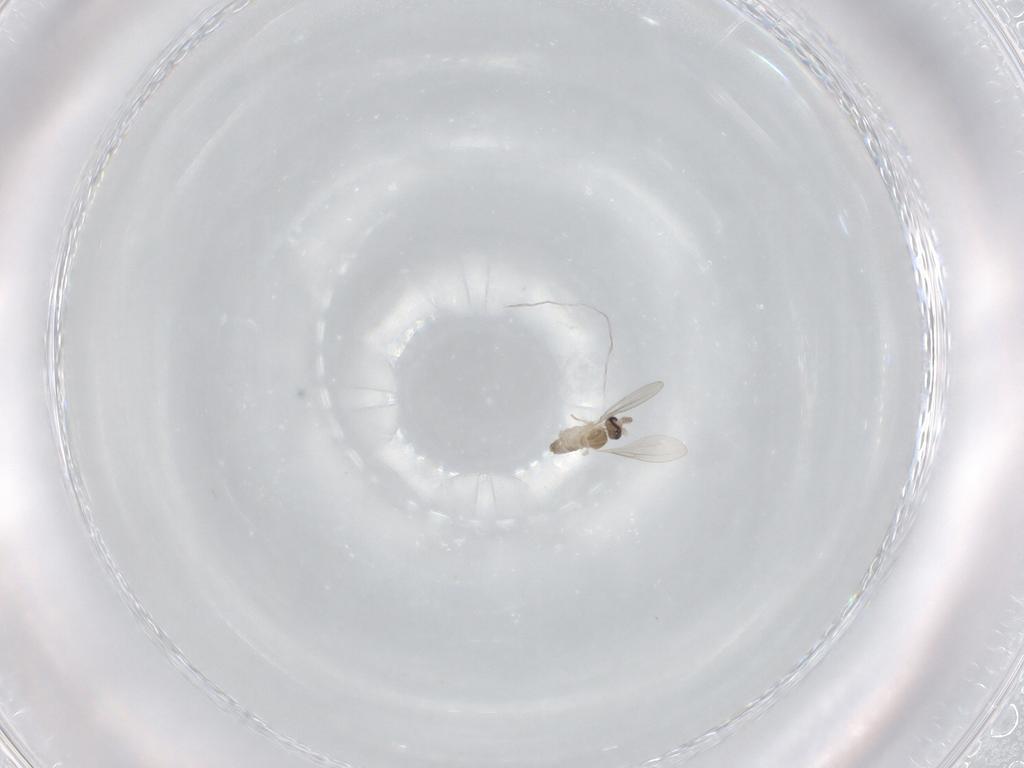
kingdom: Animalia
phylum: Arthropoda
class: Insecta
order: Diptera
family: Cecidomyiidae
